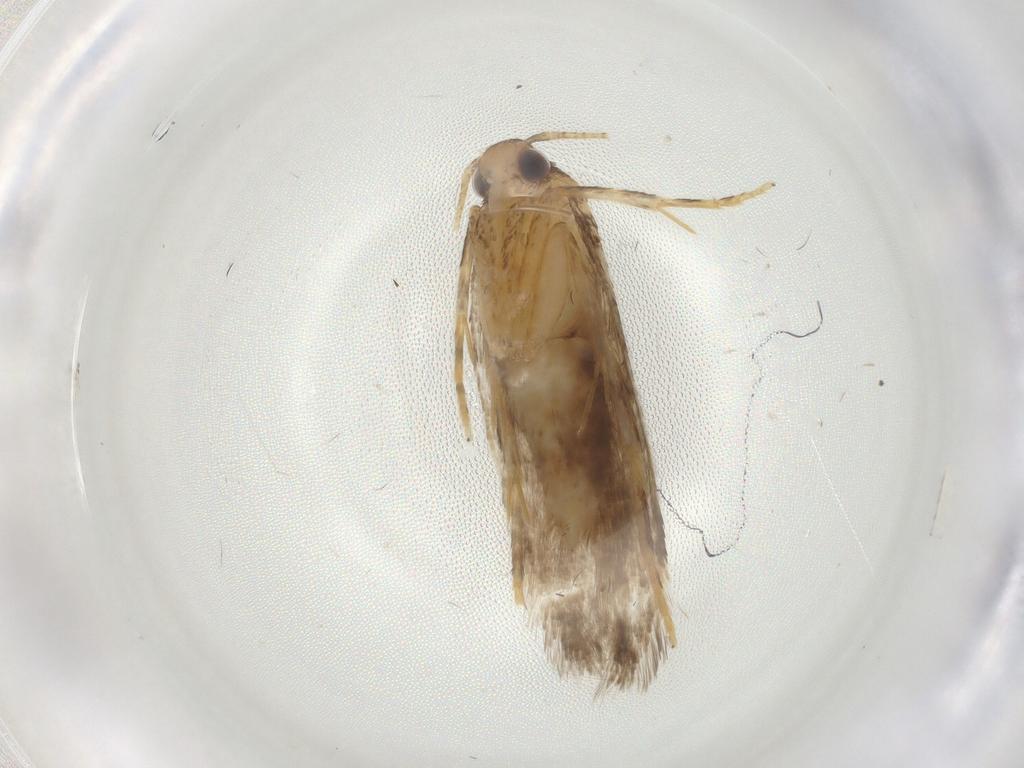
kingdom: Animalia
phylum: Arthropoda
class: Insecta
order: Lepidoptera
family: Autostichidae
